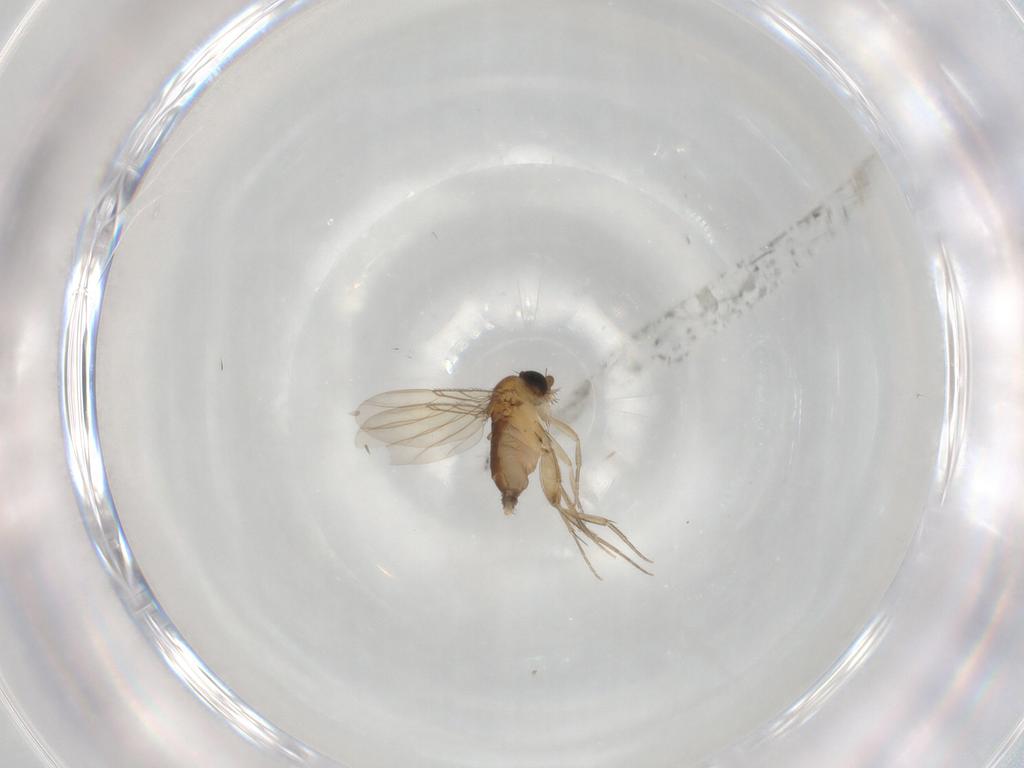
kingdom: Animalia
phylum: Arthropoda
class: Insecta
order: Diptera
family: Phoridae
